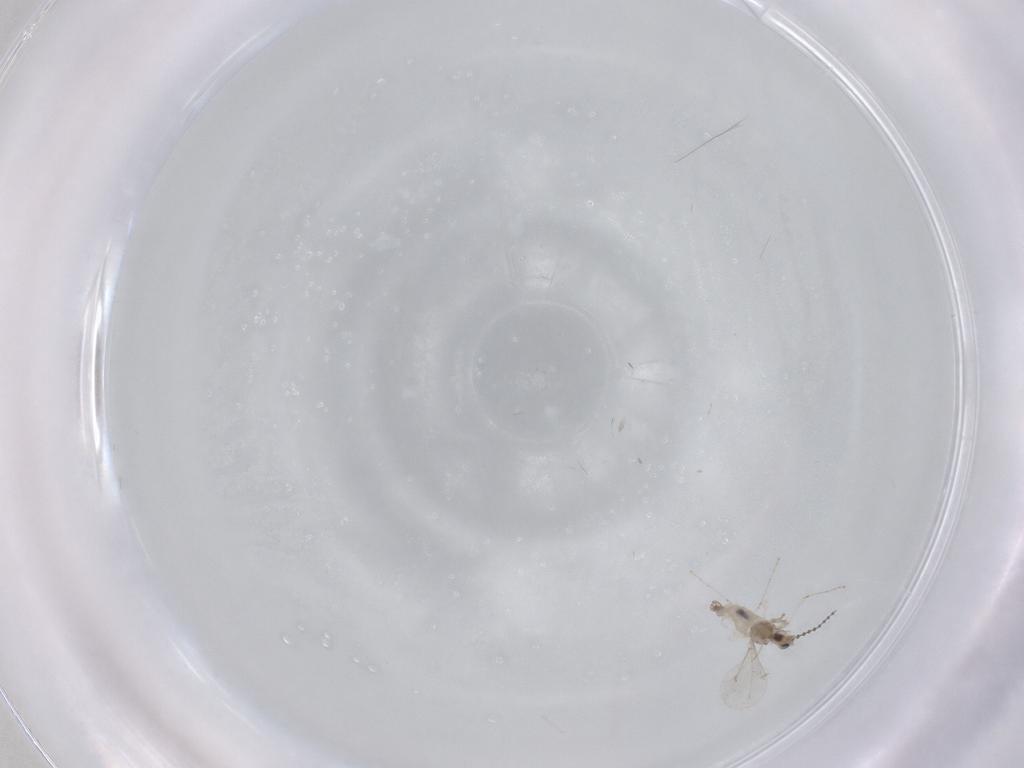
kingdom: Animalia
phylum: Arthropoda
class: Insecta
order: Diptera
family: Cecidomyiidae
